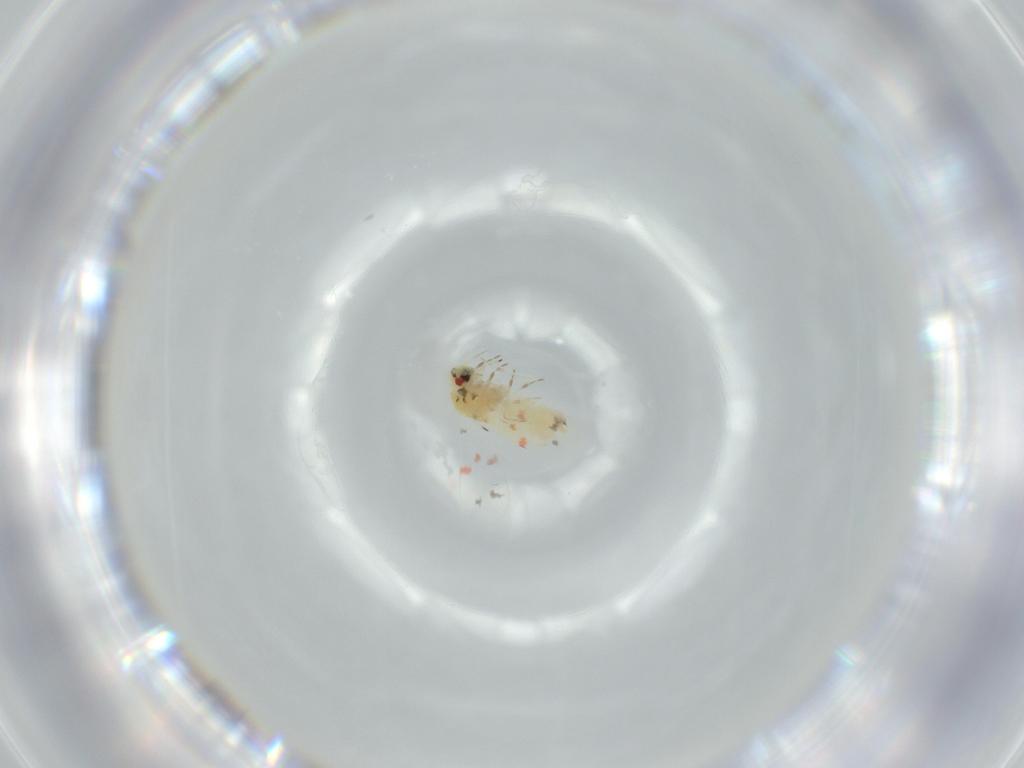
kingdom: Animalia
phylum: Arthropoda
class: Insecta
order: Hemiptera
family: Aleyrodidae
